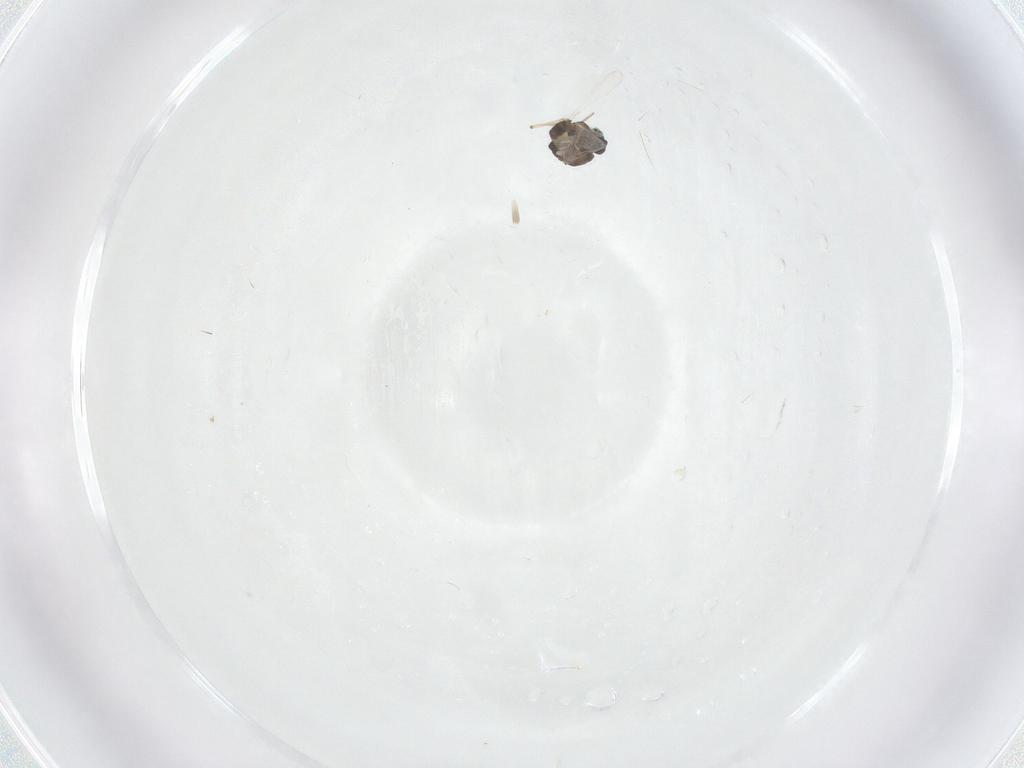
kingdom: Animalia
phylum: Arthropoda
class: Insecta
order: Diptera
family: Chironomidae
